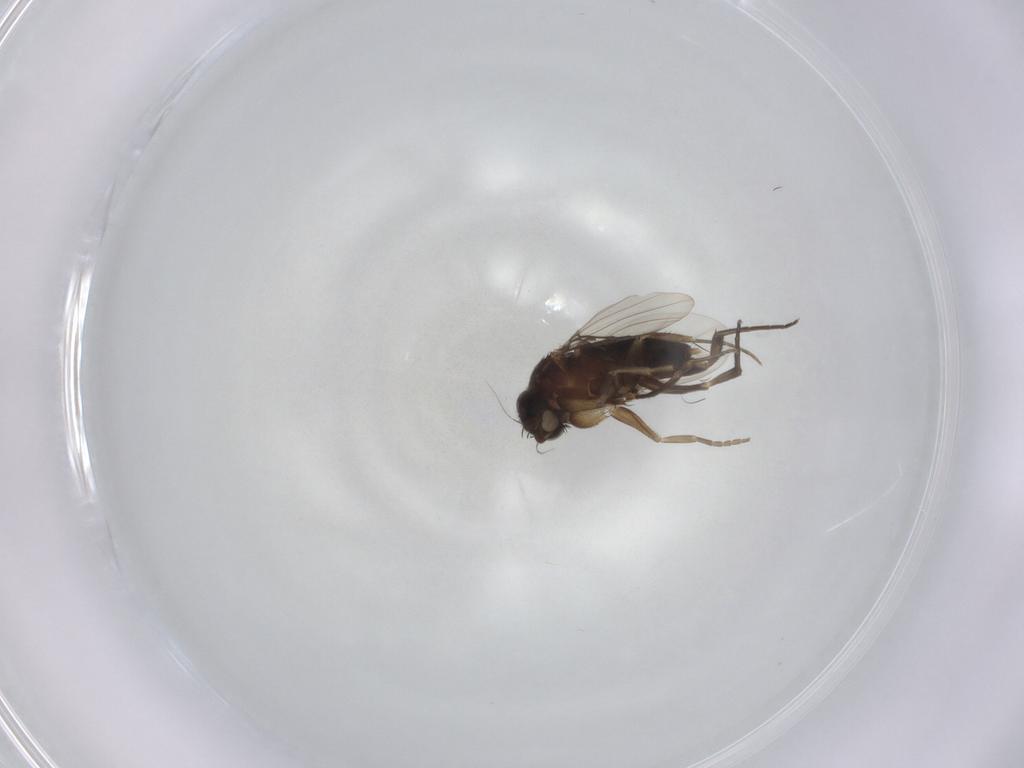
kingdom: Animalia
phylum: Arthropoda
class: Insecta
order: Diptera
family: Phoridae
